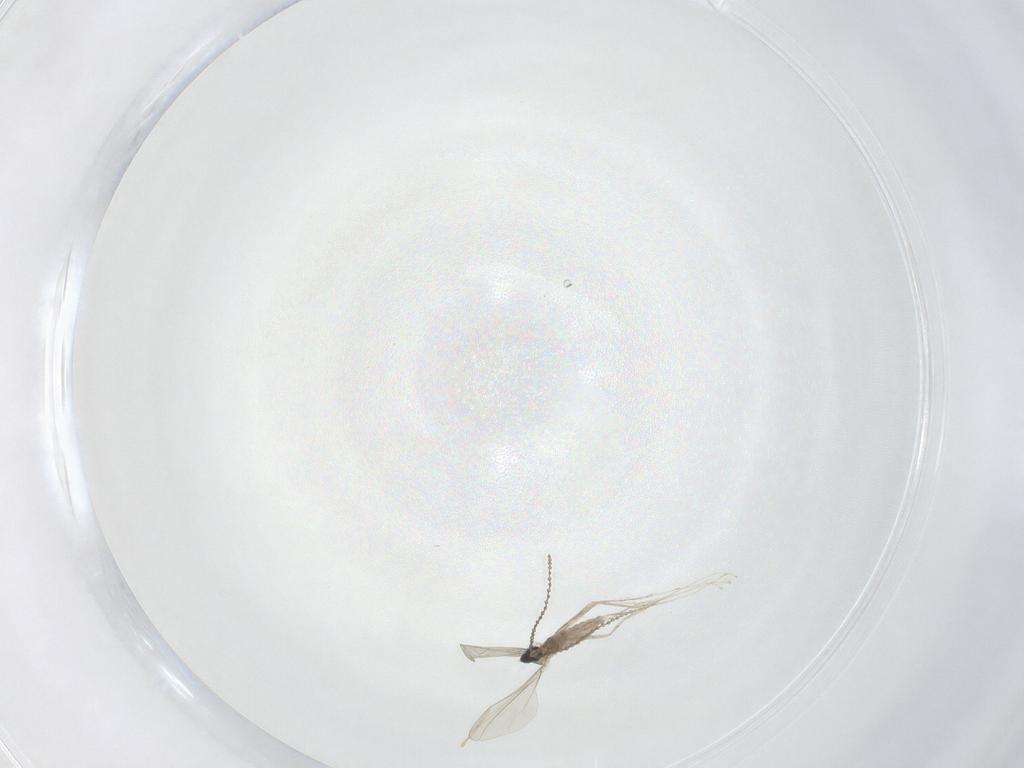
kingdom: Animalia
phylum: Arthropoda
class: Insecta
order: Diptera
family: Cecidomyiidae
